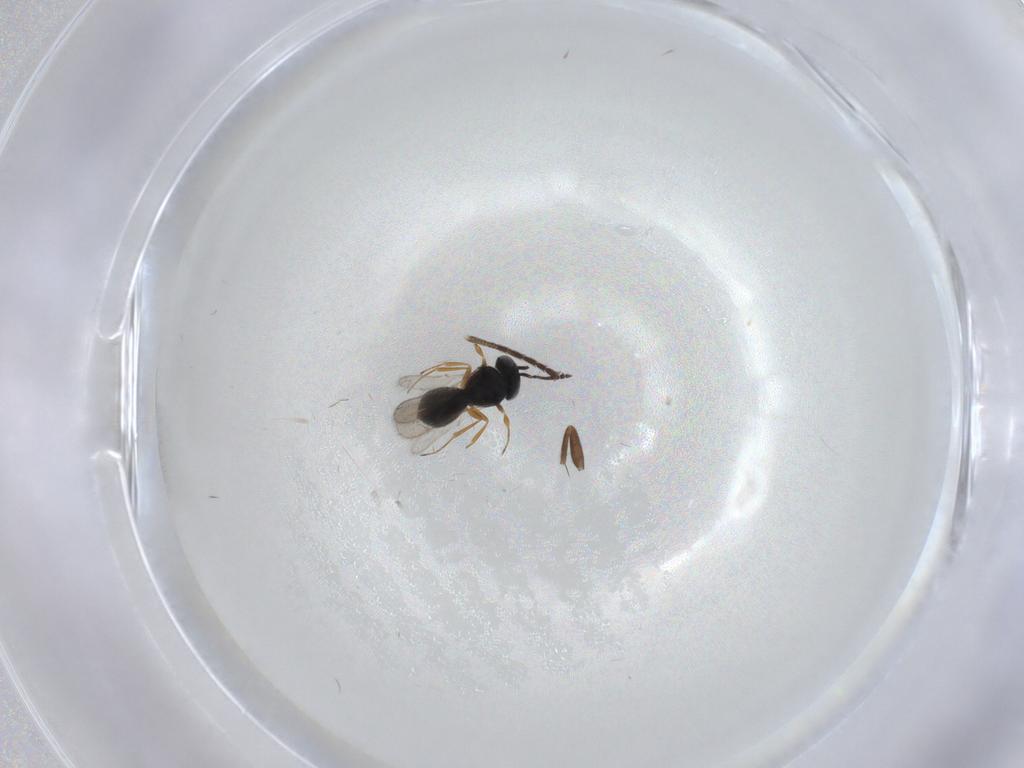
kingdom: Animalia
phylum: Arthropoda
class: Insecta
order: Hymenoptera
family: Scelionidae
